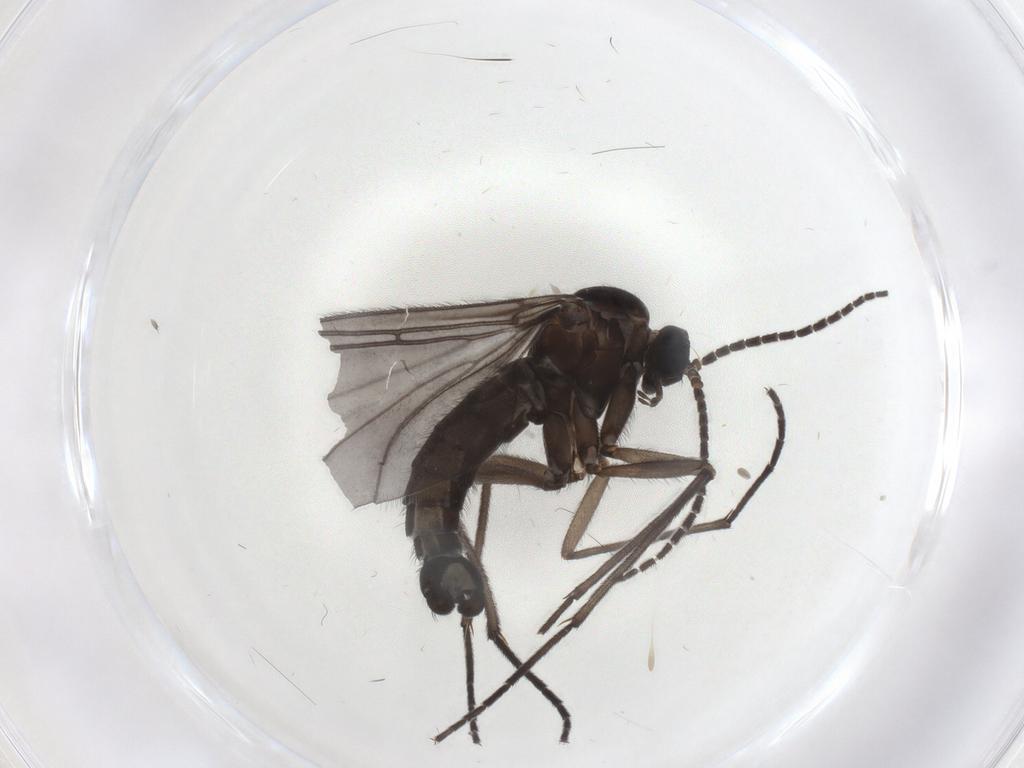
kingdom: Animalia
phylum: Arthropoda
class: Insecta
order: Diptera
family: Sciaridae
